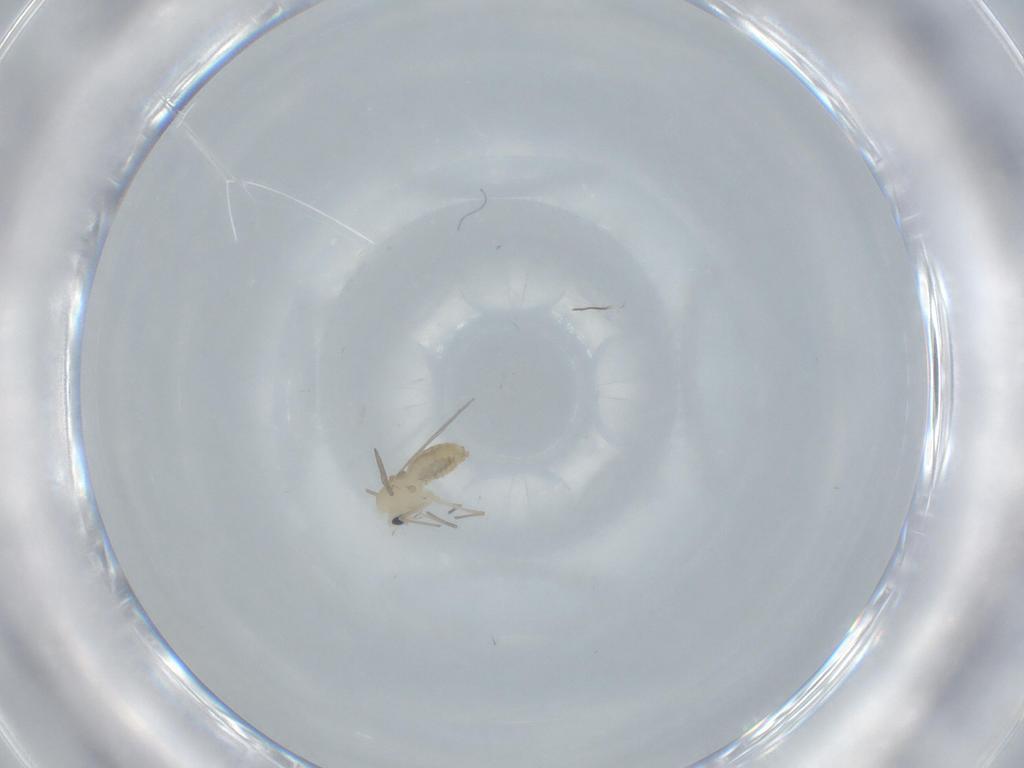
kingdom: Animalia
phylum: Arthropoda
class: Insecta
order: Diptera
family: Chironomidae
